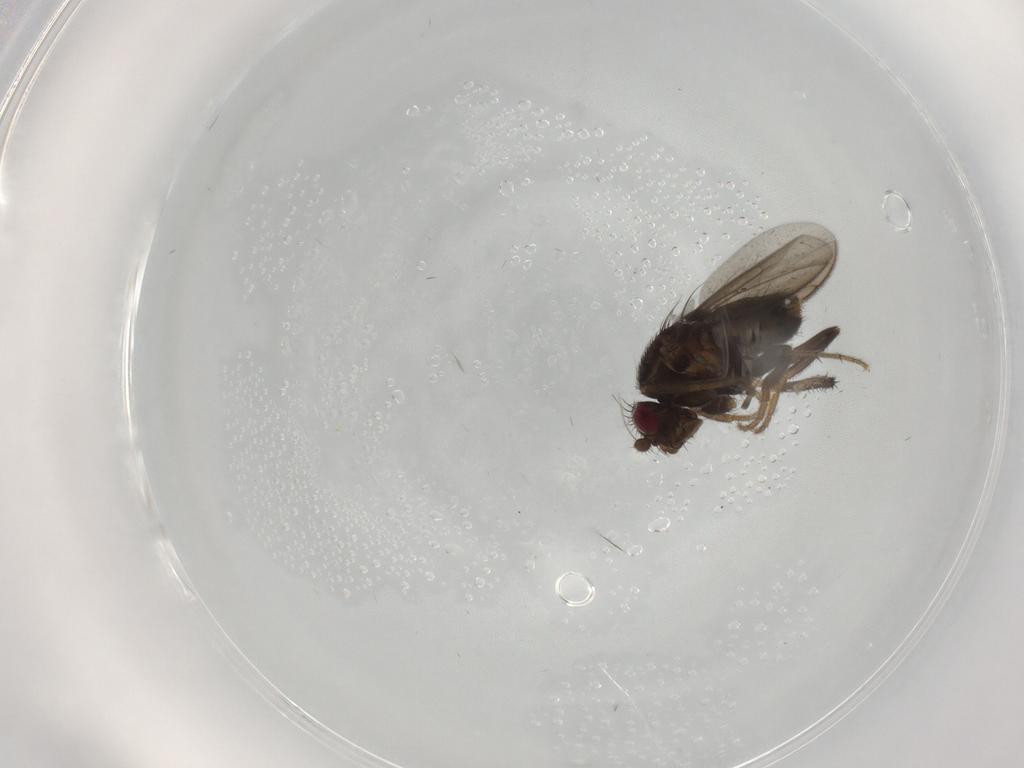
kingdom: Animalia
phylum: Arthropoda
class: Insecta
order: Diptera
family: Sphaeroceridae
